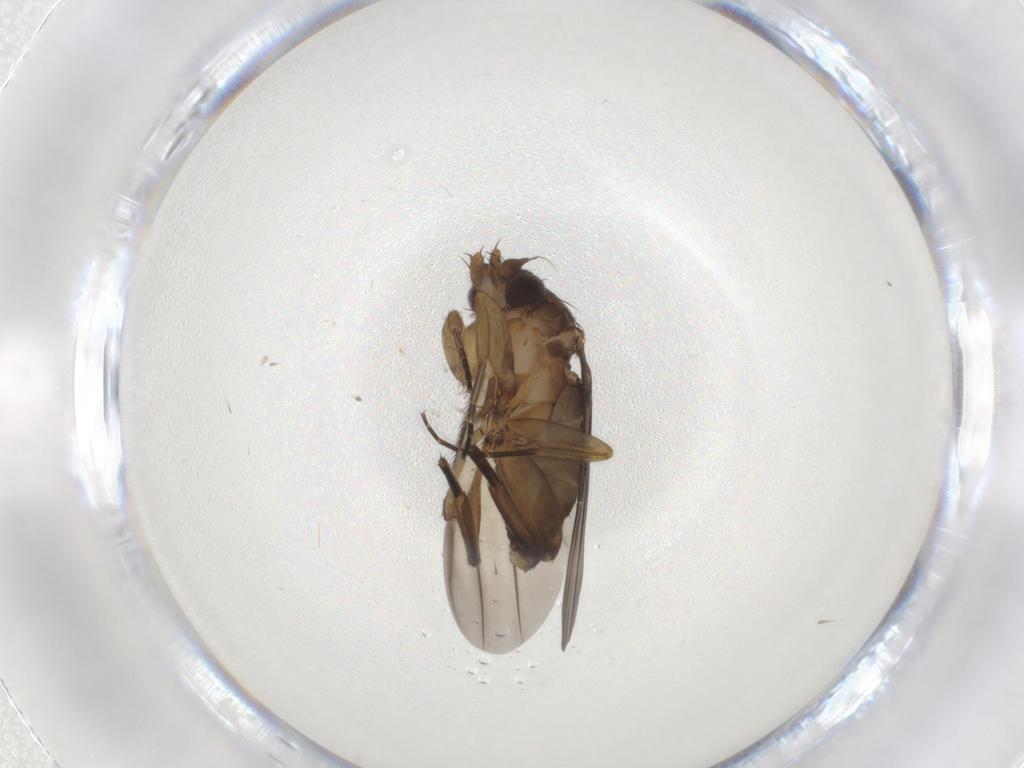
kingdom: Animalia
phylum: Arthropoda
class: Insecta
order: Diptera
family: Phoridae
